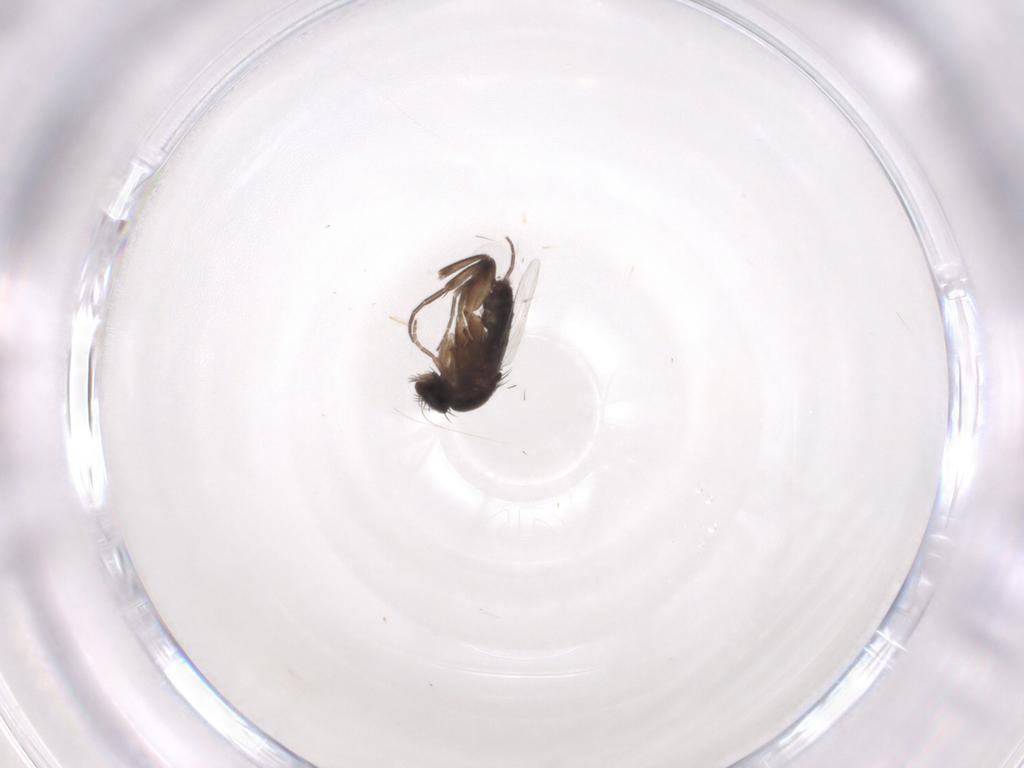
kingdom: Animalia
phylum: Arthropoda
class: Insecta
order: Diptera
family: Phoridae
